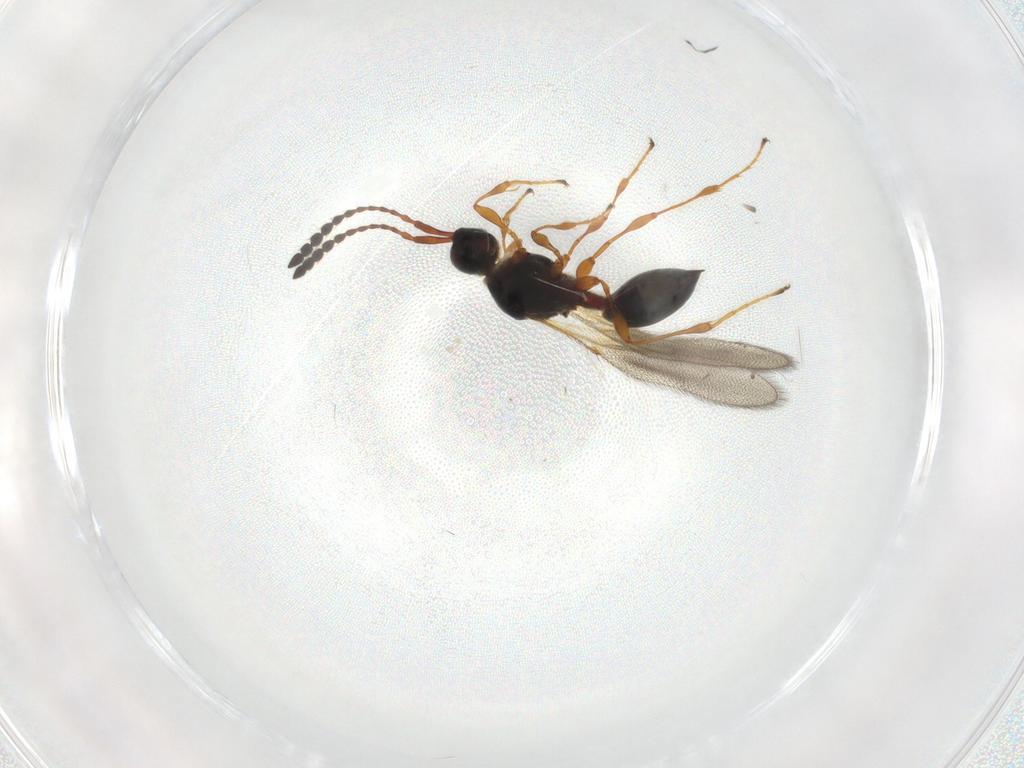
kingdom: Animalia
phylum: Arthropoda
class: Insecta
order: Hymenoptera
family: Diapriidae
